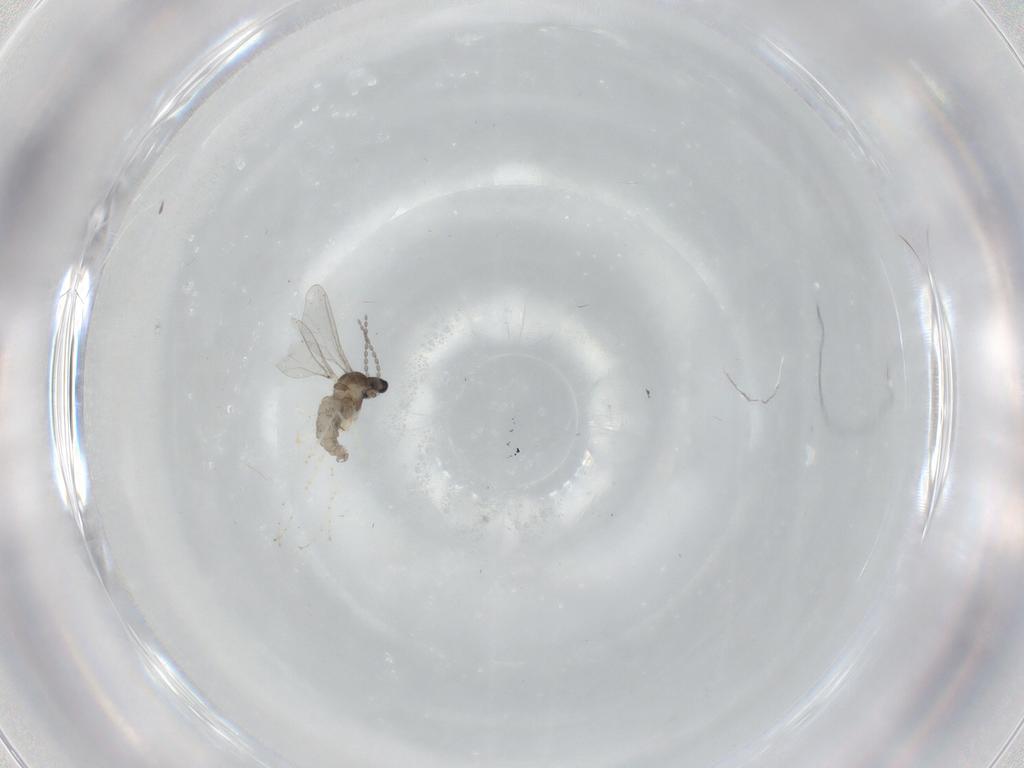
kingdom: Animalia
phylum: Arthropoda
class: Insecta
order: Diptera
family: Cecidomyiidae
